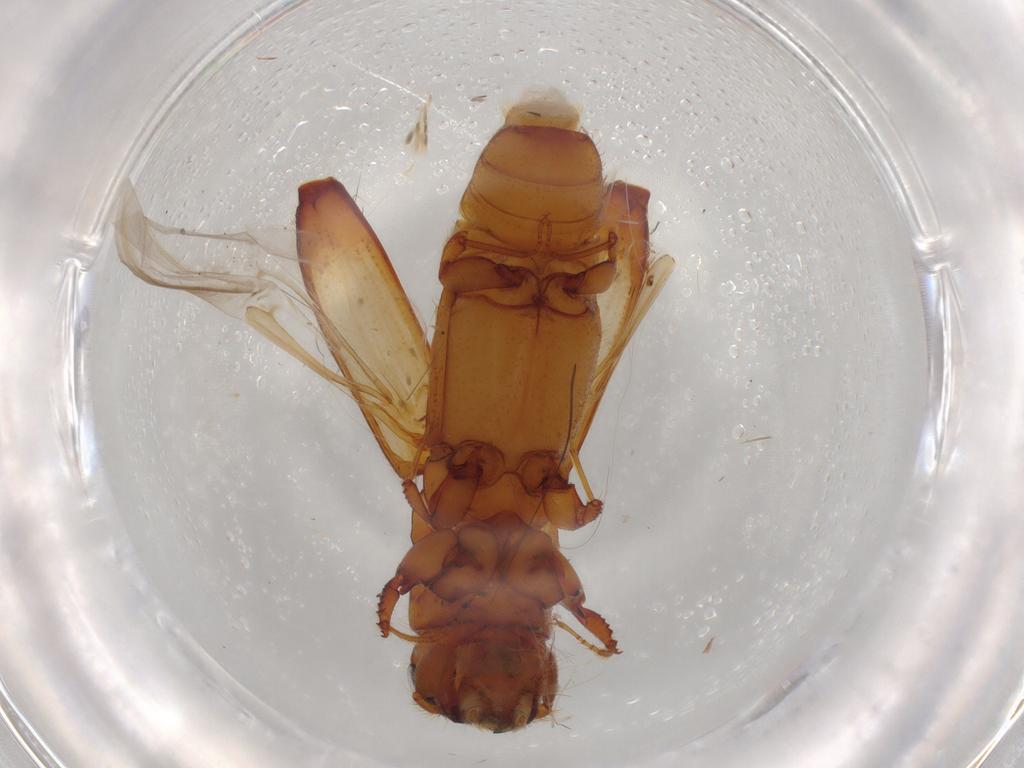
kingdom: Animalia
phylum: Arthropoda
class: Insecta
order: Coleoptera
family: Curculionidae
